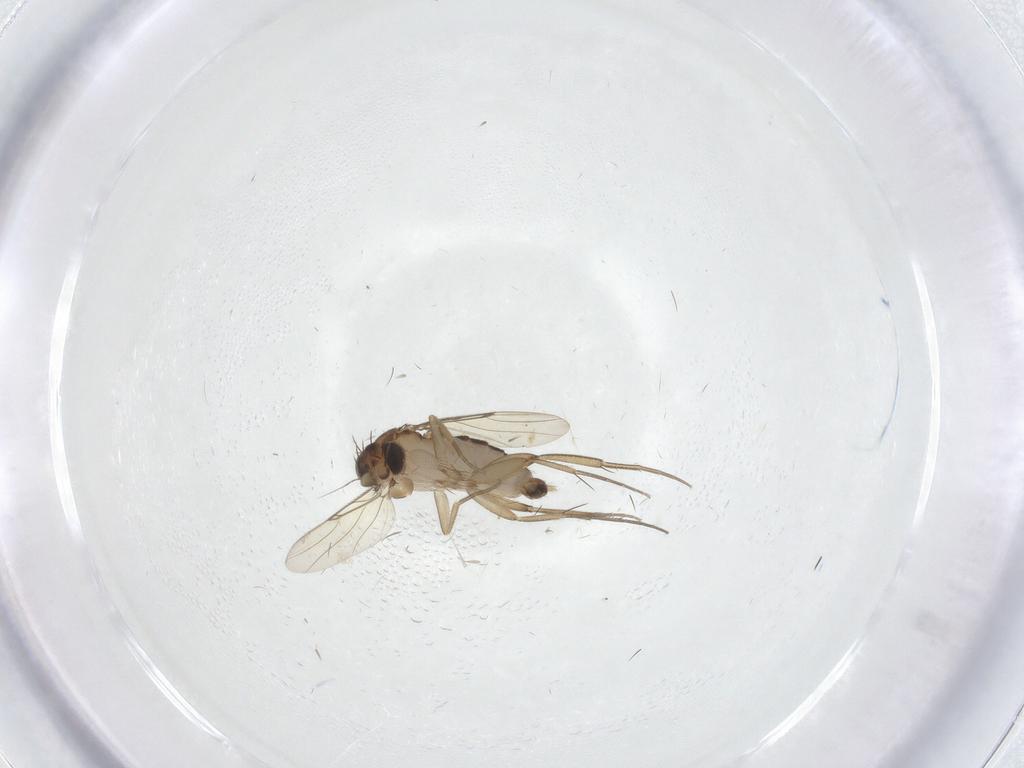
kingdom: Animalia
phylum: Arthropoda
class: Insecta
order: Diptera
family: Phoridae
